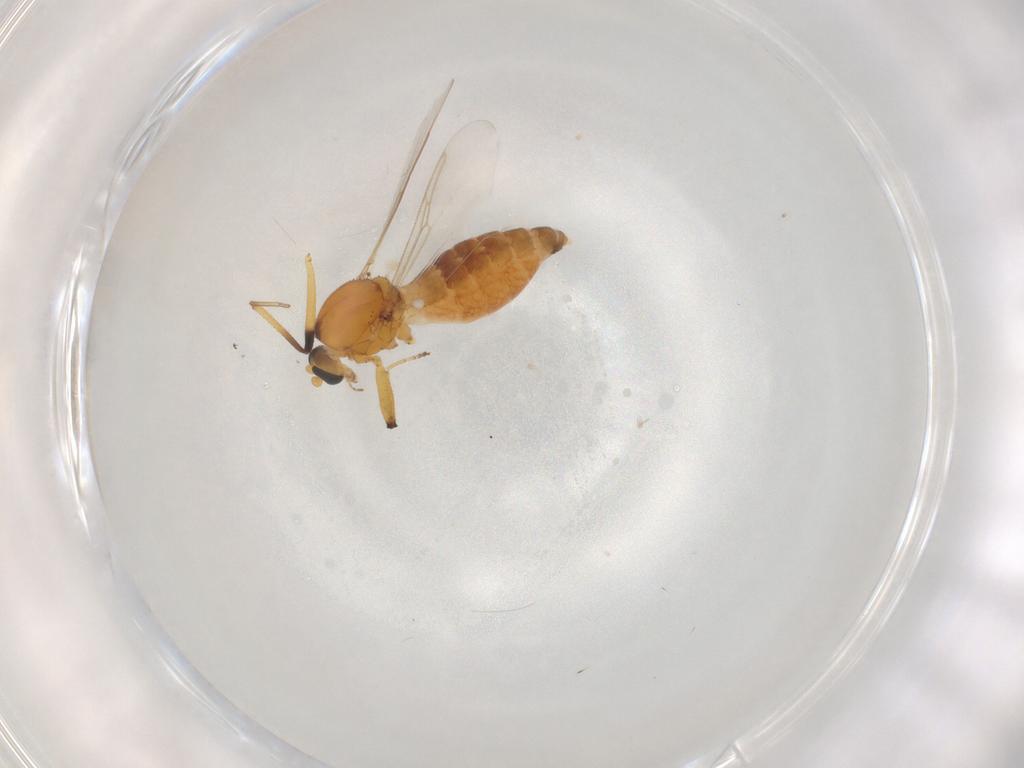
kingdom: Animalia
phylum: Arthropoda
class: Insecta
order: Diptera
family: Ceratopogonidae
